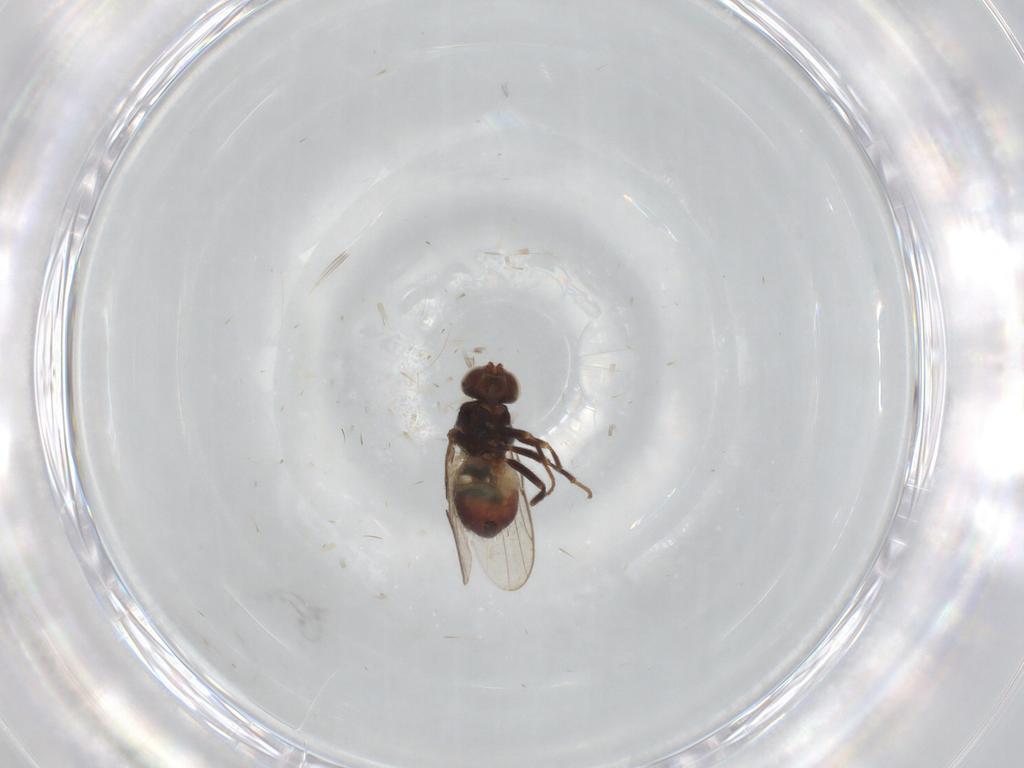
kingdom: Animalia
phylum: Arthropoda
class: Insecta
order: Diptera
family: Chloropidae
